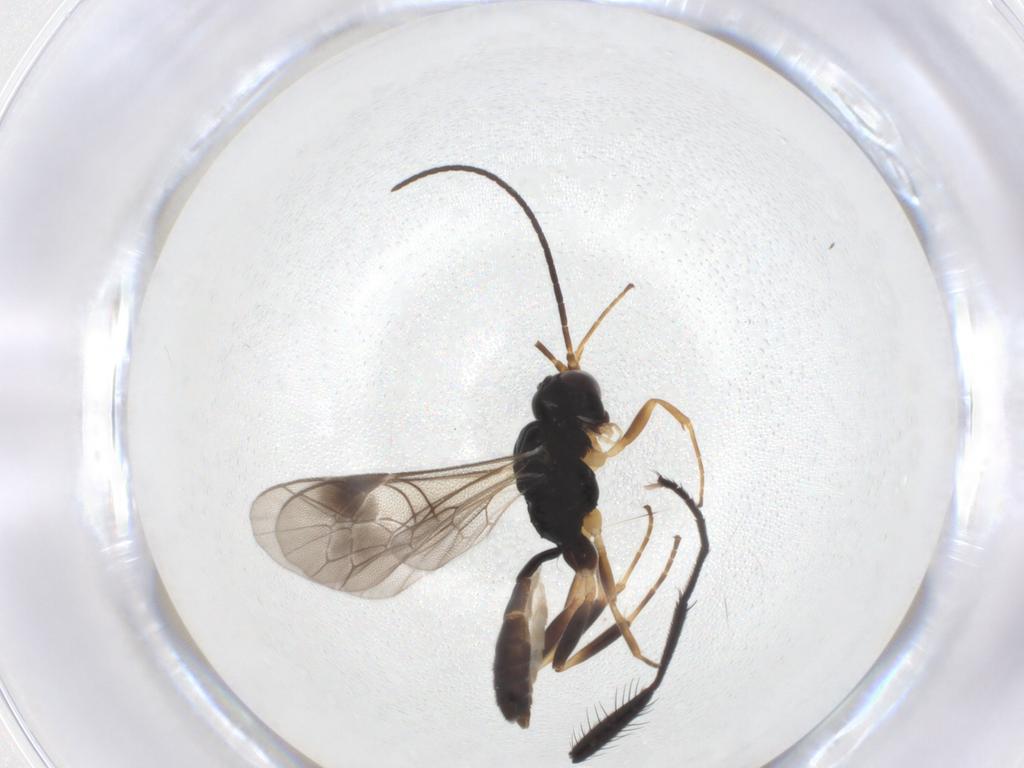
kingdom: Animalia
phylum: Arthropoda
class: Insecta
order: Hymenoptera
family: Ichneumonidae
